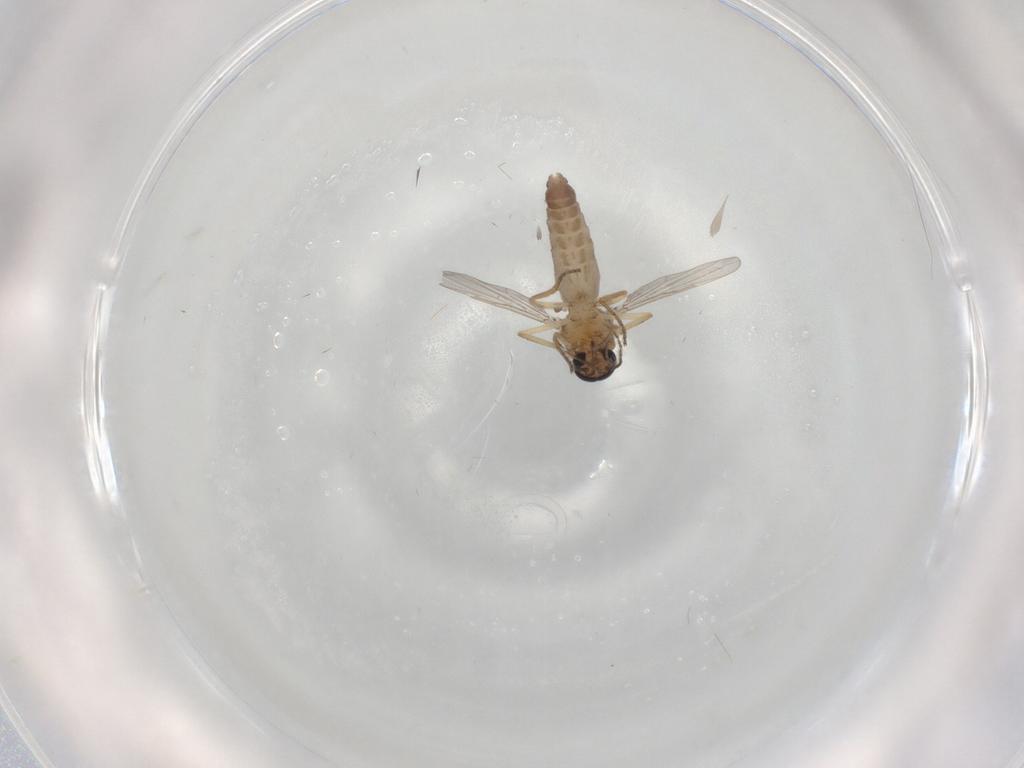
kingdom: Animalia
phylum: Arthropoda
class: Insecta
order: Diptera
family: Ceratopogonidae
